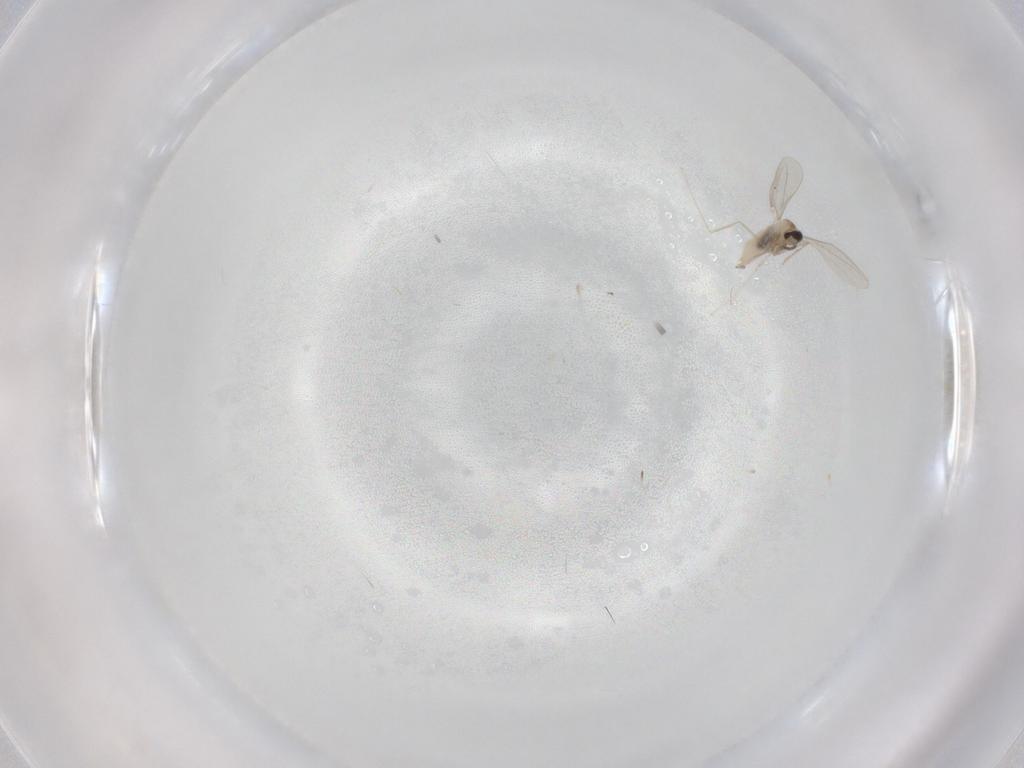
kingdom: Animalia
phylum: Arthropoda
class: Insecta
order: Diptera
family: Cecidomyiidae
